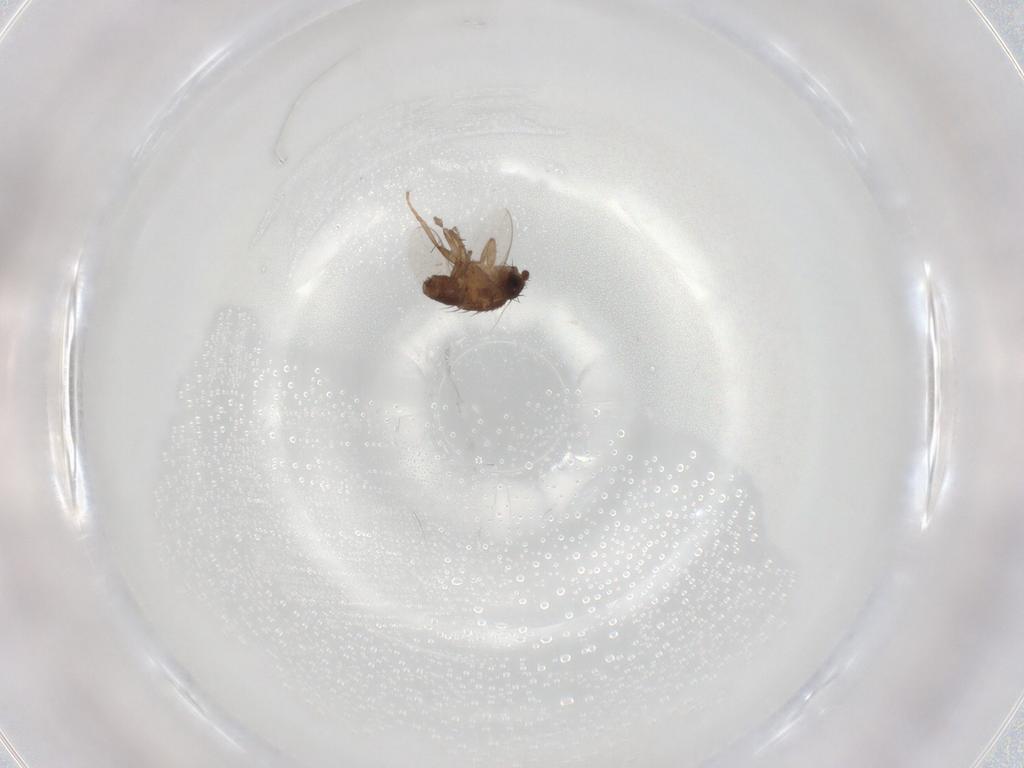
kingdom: Animalia
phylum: Arthropoda
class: Insecta
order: Diptera
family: Sphaeroceridae
